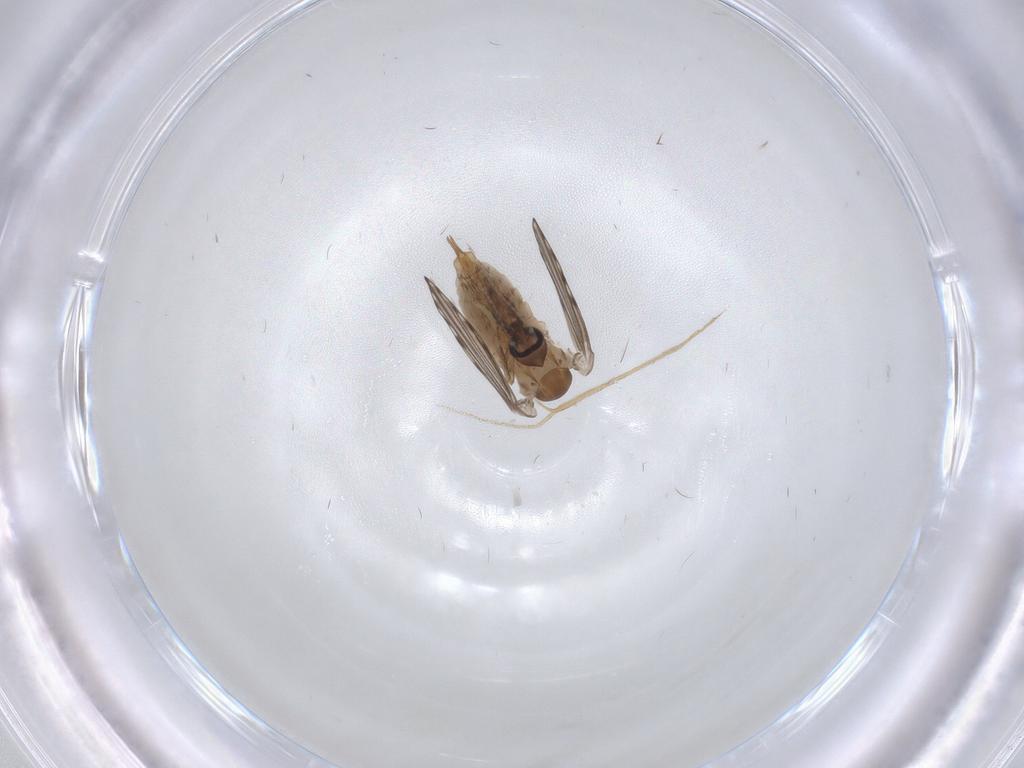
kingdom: Animalia
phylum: Arthropoda
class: Insecta
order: Diptera
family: Psychodidae
